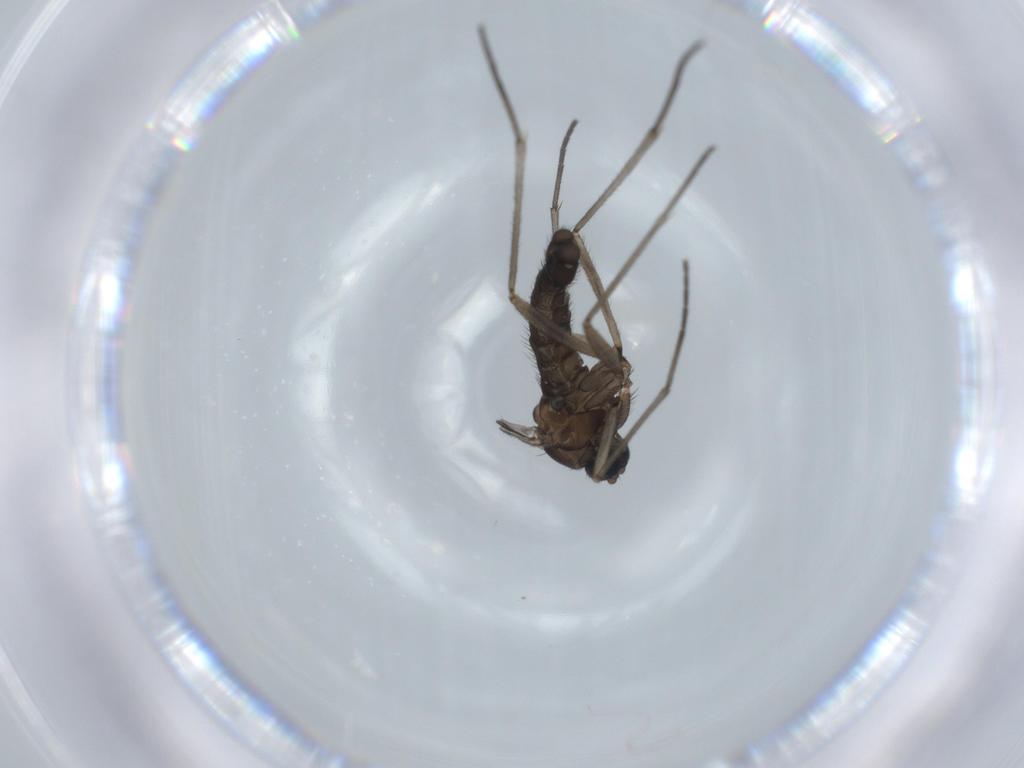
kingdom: Animalia
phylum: Arthropoda
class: Insecta
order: Diptera
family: Sciaridae
